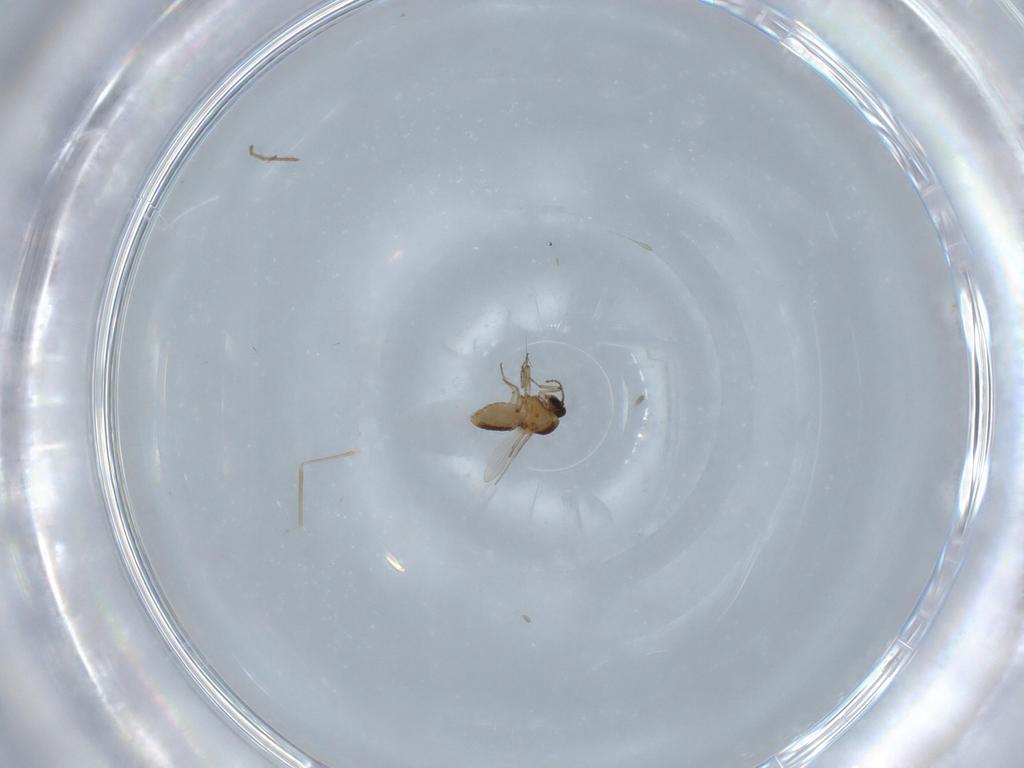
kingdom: Animalia
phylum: Arthropoda
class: Insecta
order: Diptera
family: Ceratopogonidae
